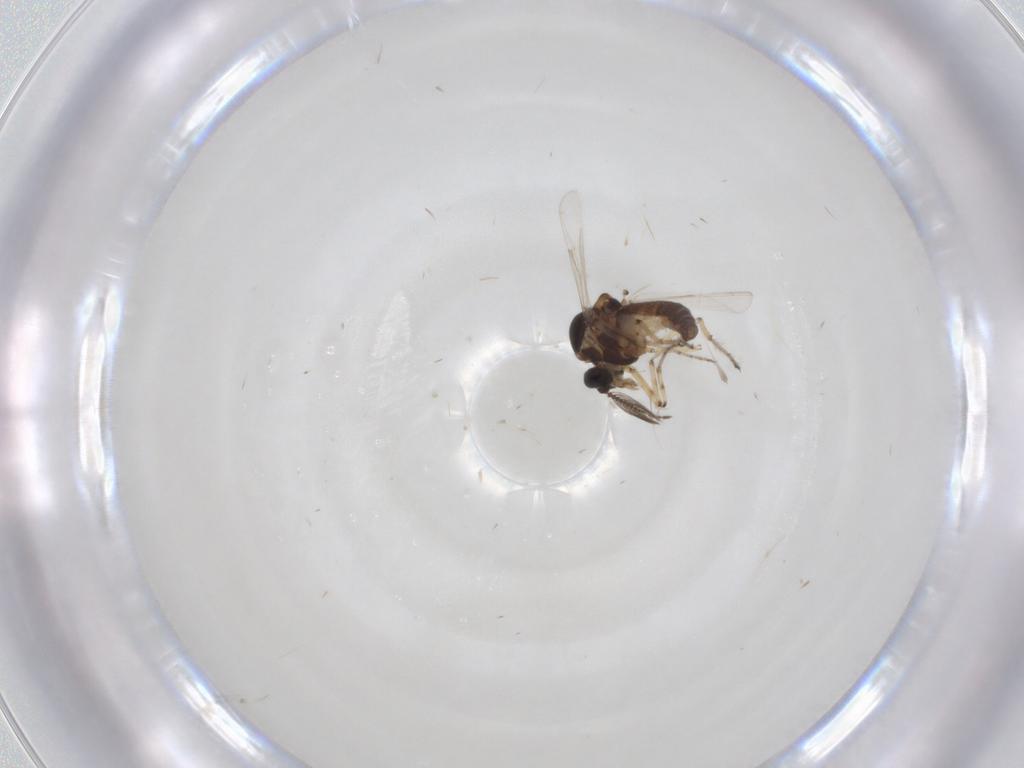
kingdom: Animalia
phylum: Arthropoda
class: Insecta
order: Diptera
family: Ceratopogonidae
